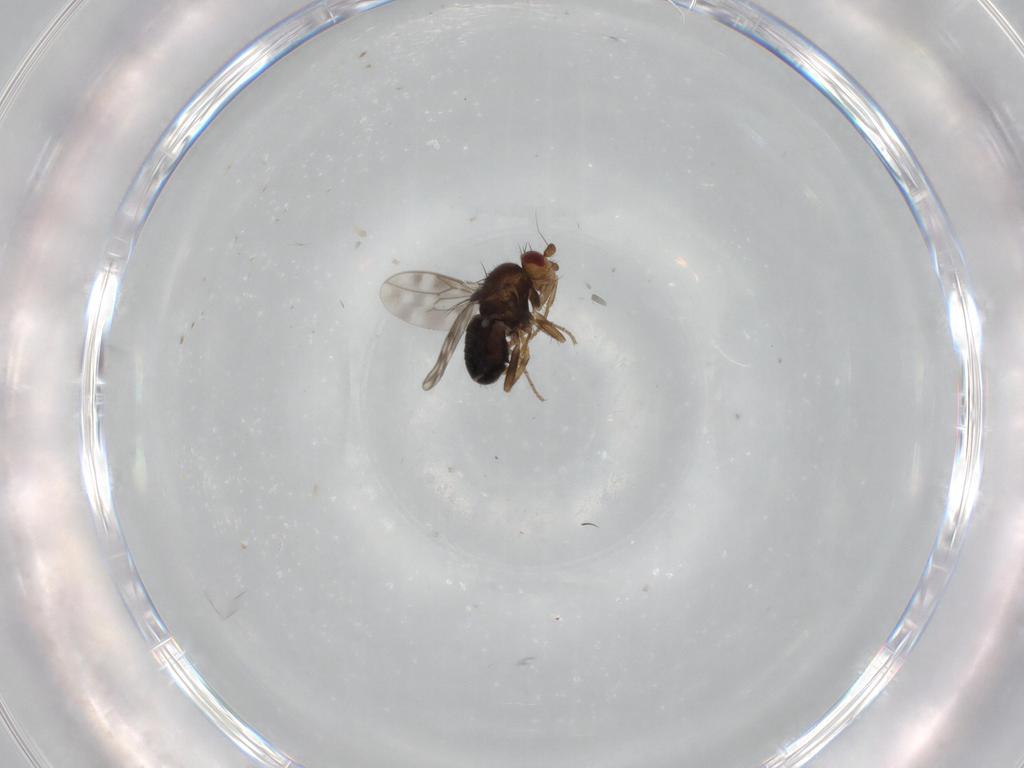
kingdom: Animalia
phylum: Arthropoda
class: Insecta
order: Diptera
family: Sphaeroceridae
